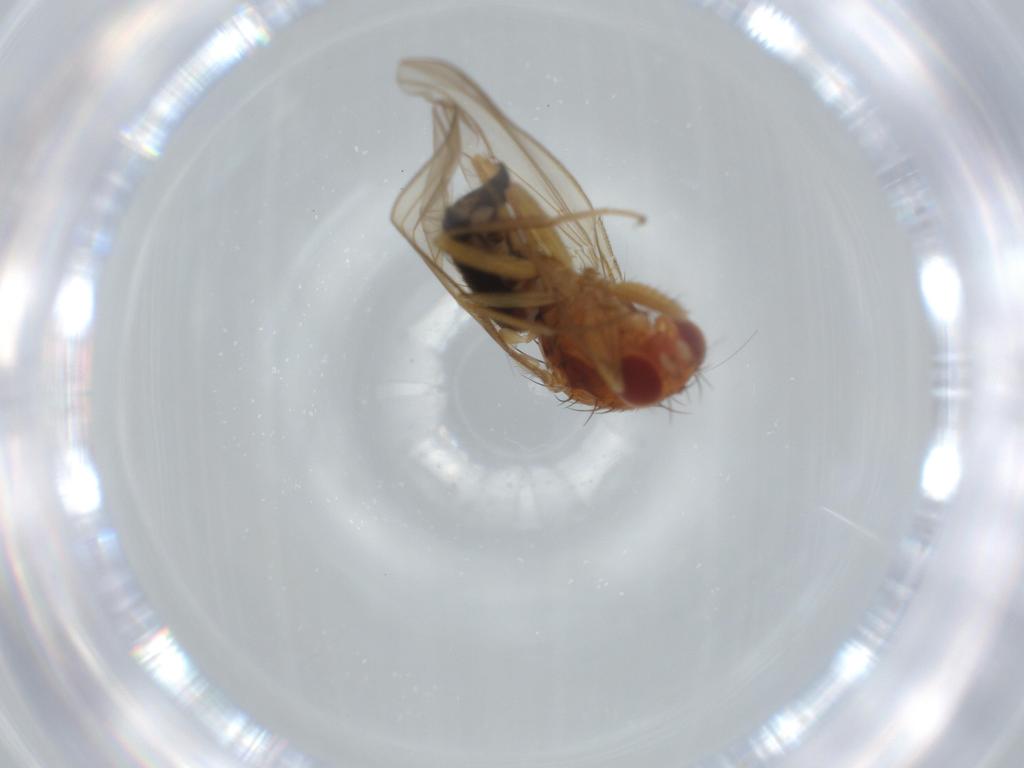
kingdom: Animalia
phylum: Arthropoda
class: Insecta
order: Diptera
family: Drosophilidae
